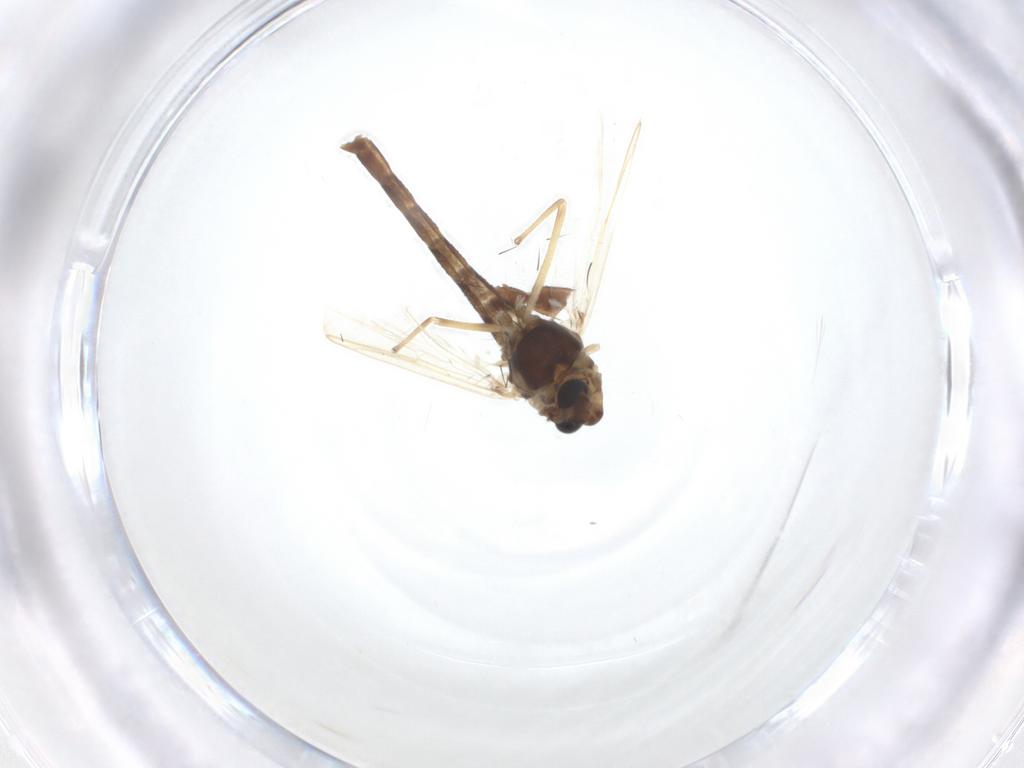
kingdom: Animalia
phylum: Arthropoda
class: Insecta
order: Diptera
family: Chironomidae
